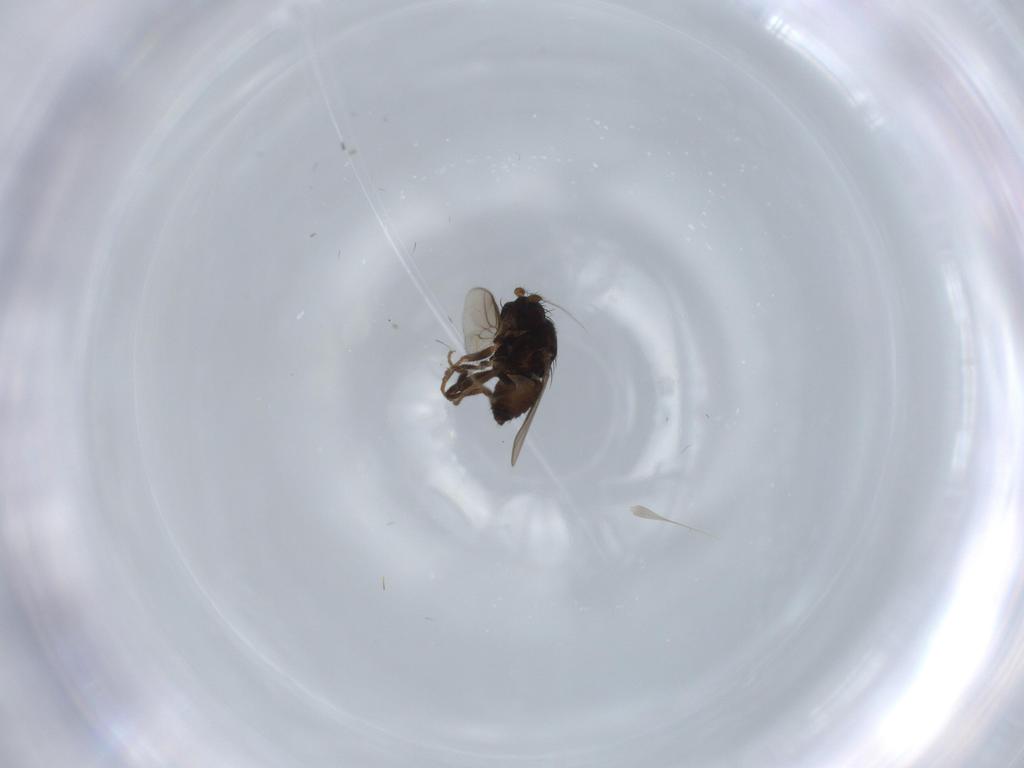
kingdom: Animalia
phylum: Arthropoda
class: Insecta
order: Diptera
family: Sphaeroceridae
